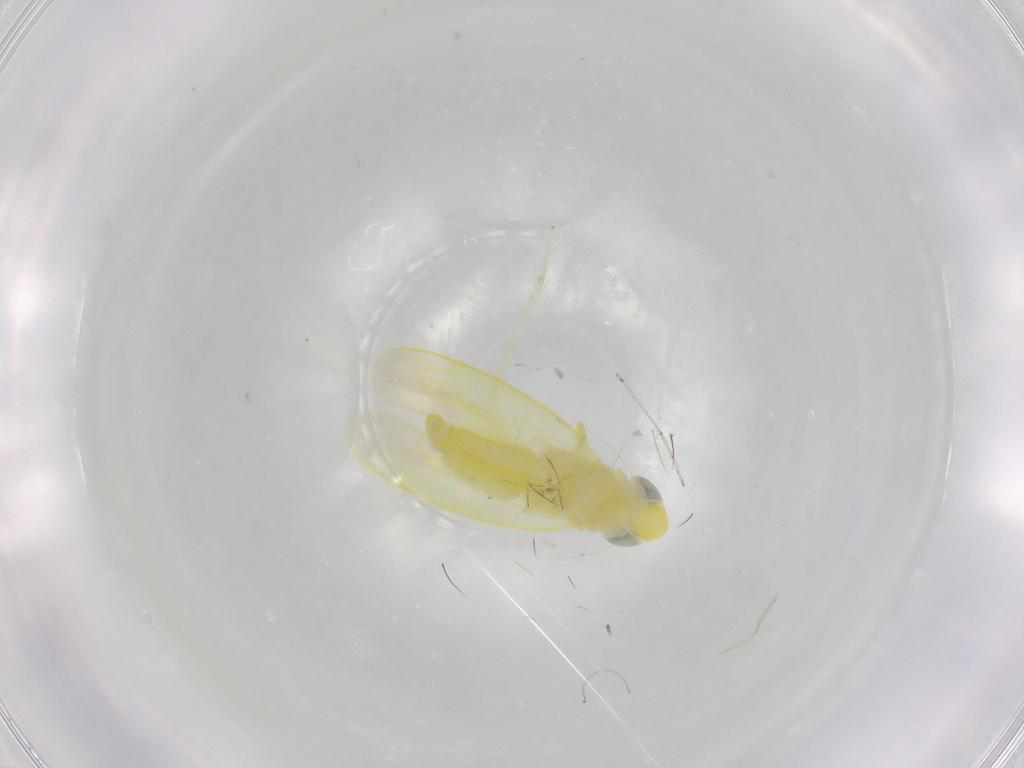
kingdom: Animalia
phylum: Arthropoda
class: Insecta
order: Hemiptera
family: Cicadellidae
